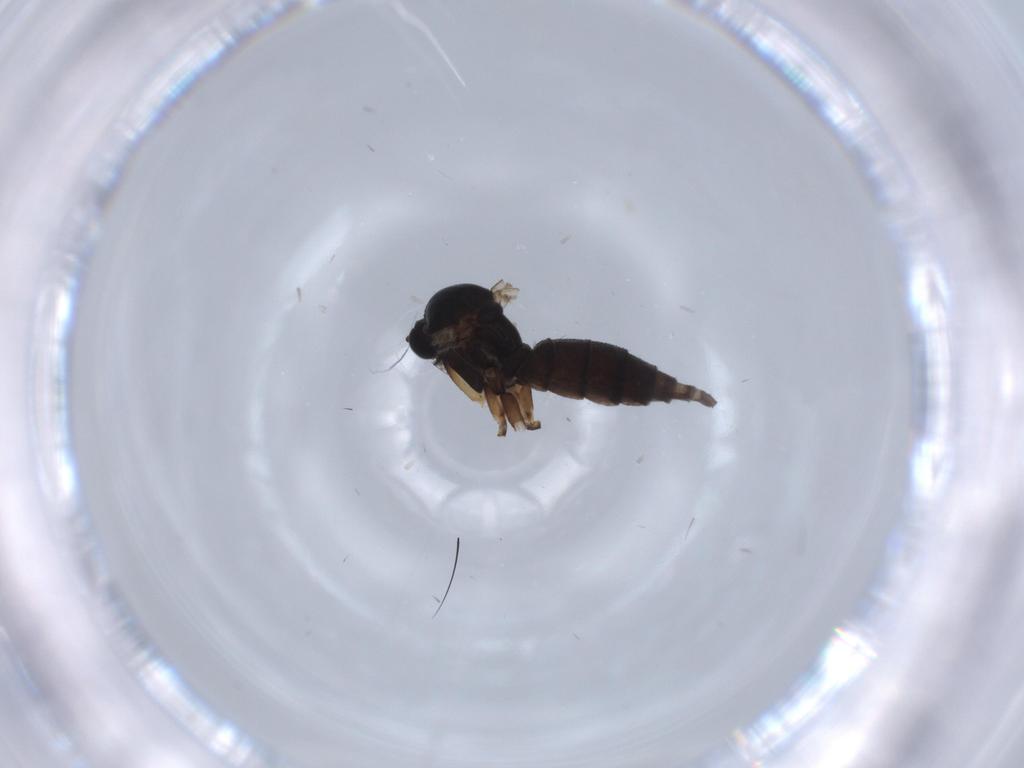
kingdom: Animalia
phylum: Arthropoda
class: Insecta
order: Diptera
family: Sciaridae
